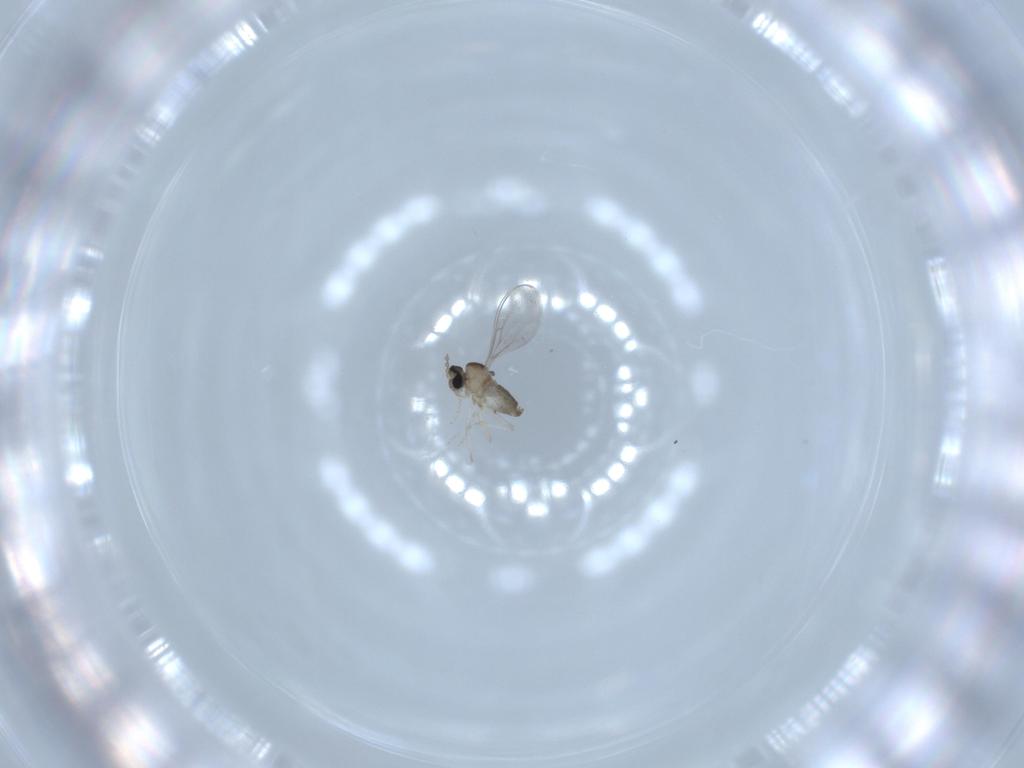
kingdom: Animalia
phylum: Arthropoda
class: Insecta
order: Diptera
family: Cecidomyiidae
